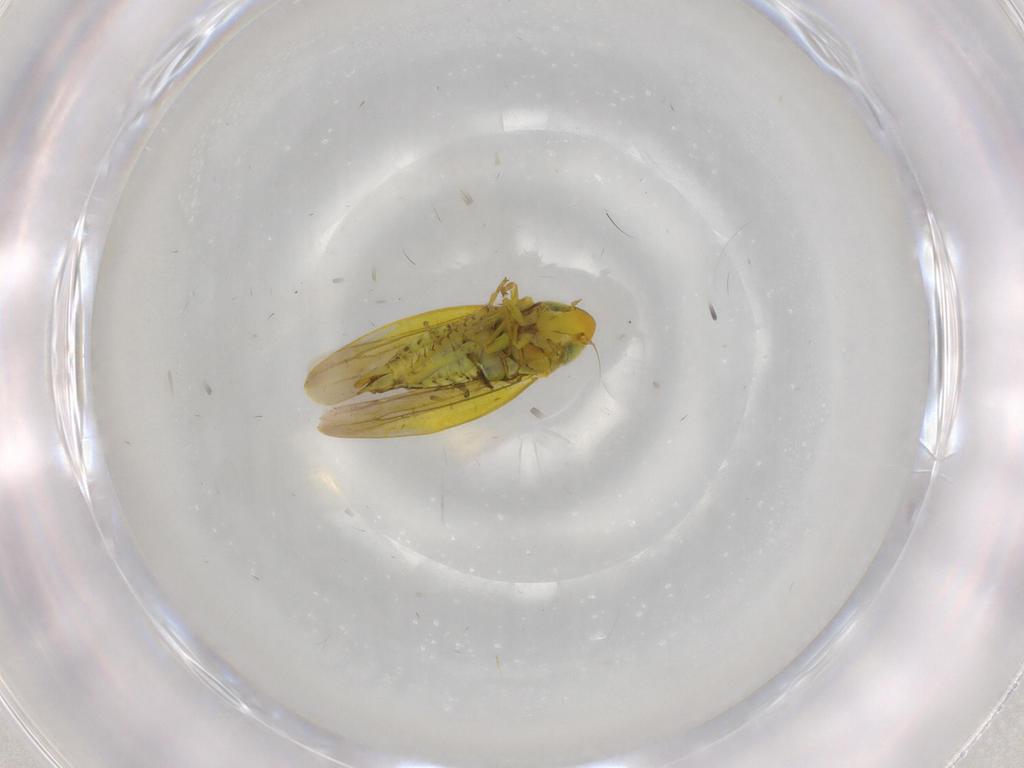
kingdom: Animalia
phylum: Arthropoda
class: Insecta
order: Hemiptera
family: Cicadellidae
